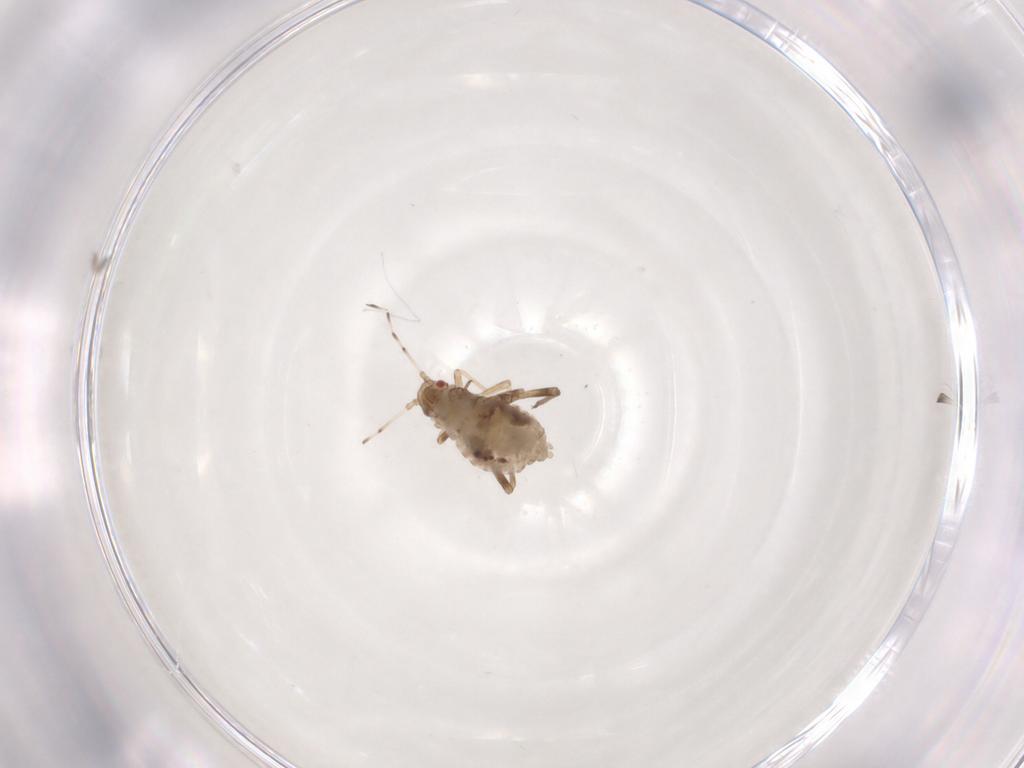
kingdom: Animalia
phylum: Arthropoda
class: Insecta
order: Hemiptera
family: Aphididae
